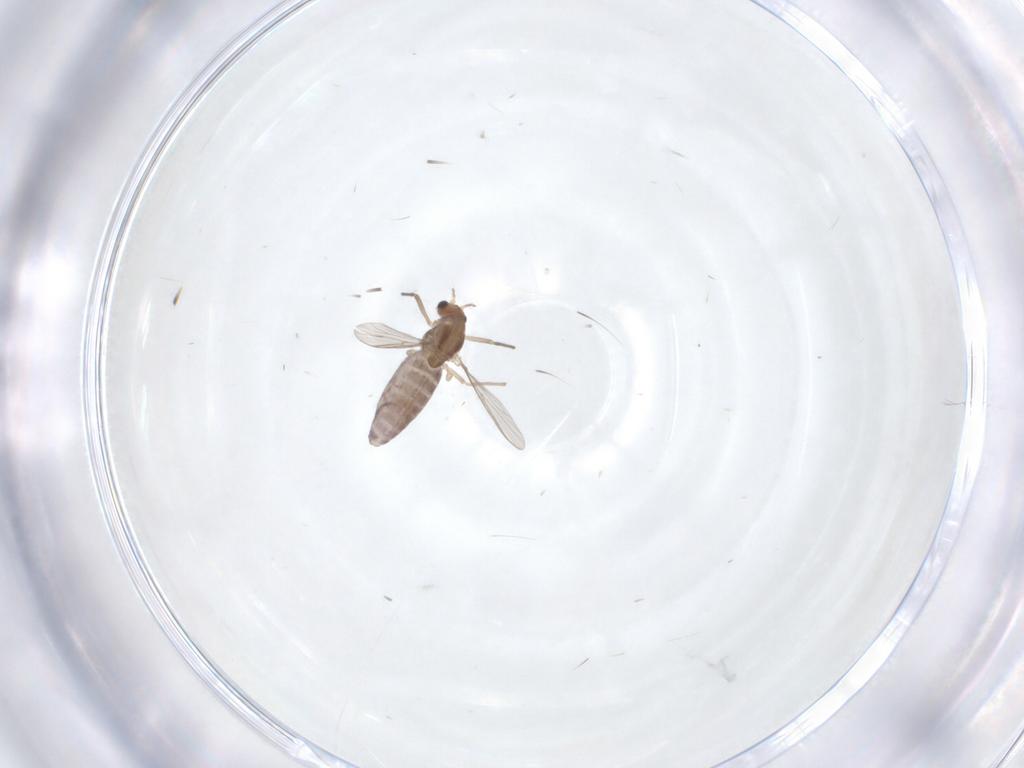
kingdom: Animalia
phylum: Arthropoda
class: Insecta
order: Diptera
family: Chironomidae
